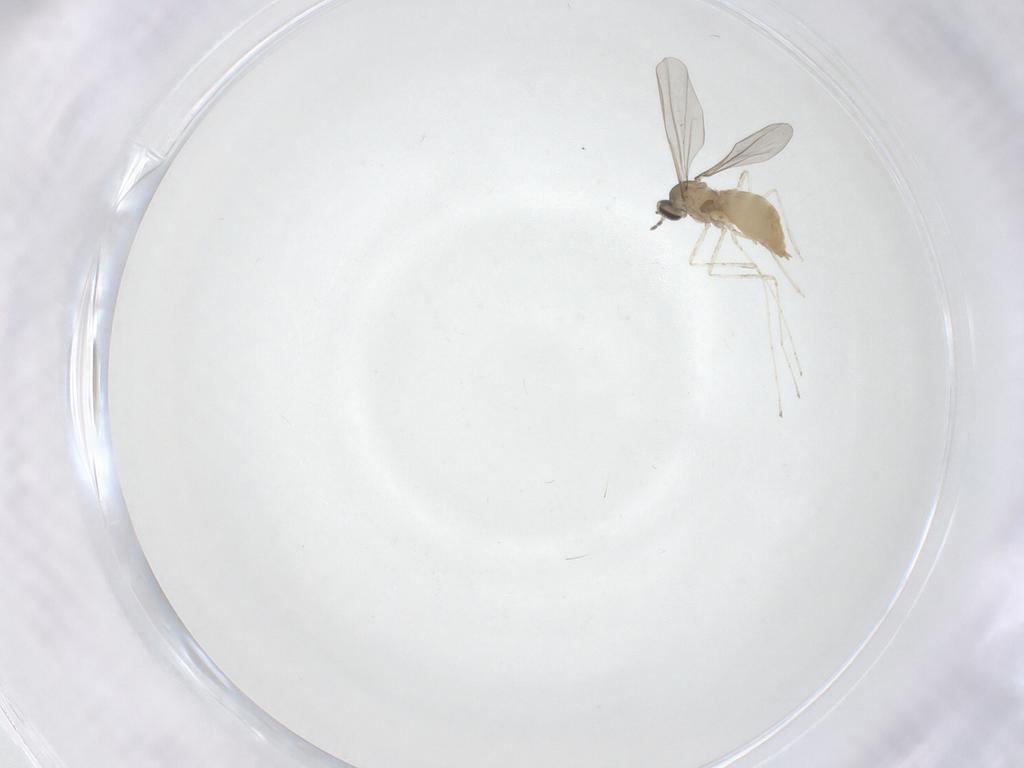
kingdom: Animalia
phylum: Arthropoda
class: Insecta
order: Diptera
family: Cecidomyiidae
